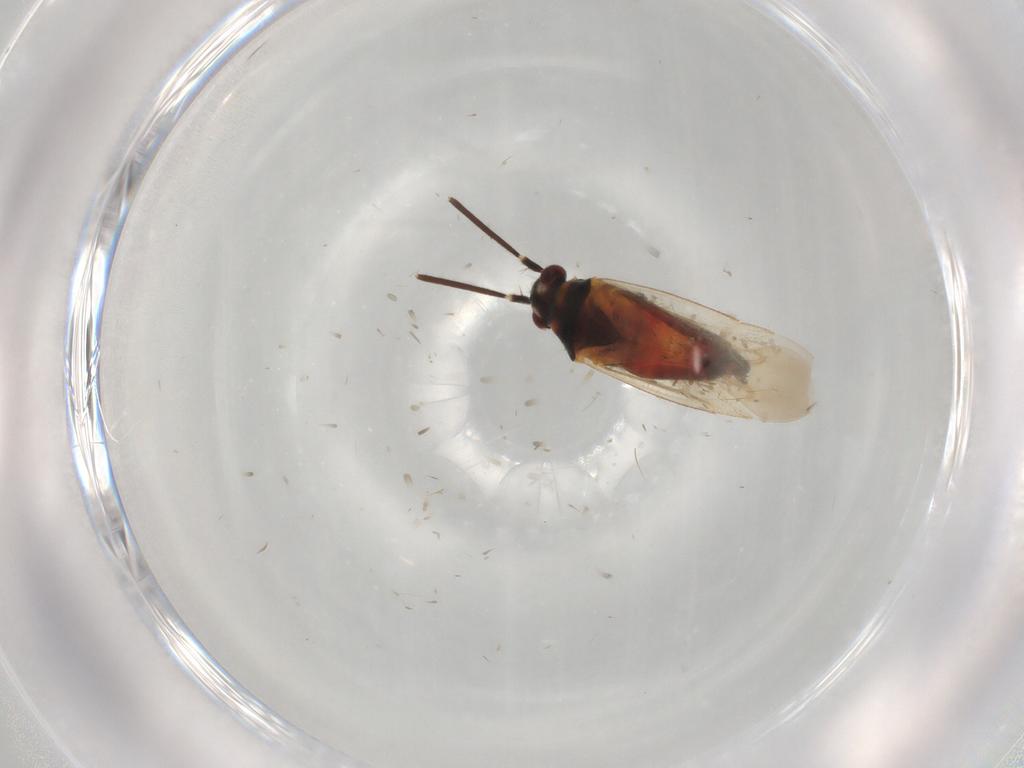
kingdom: Animalia
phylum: Arthropoda
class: Insecta
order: Hemiptera
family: Miridae
